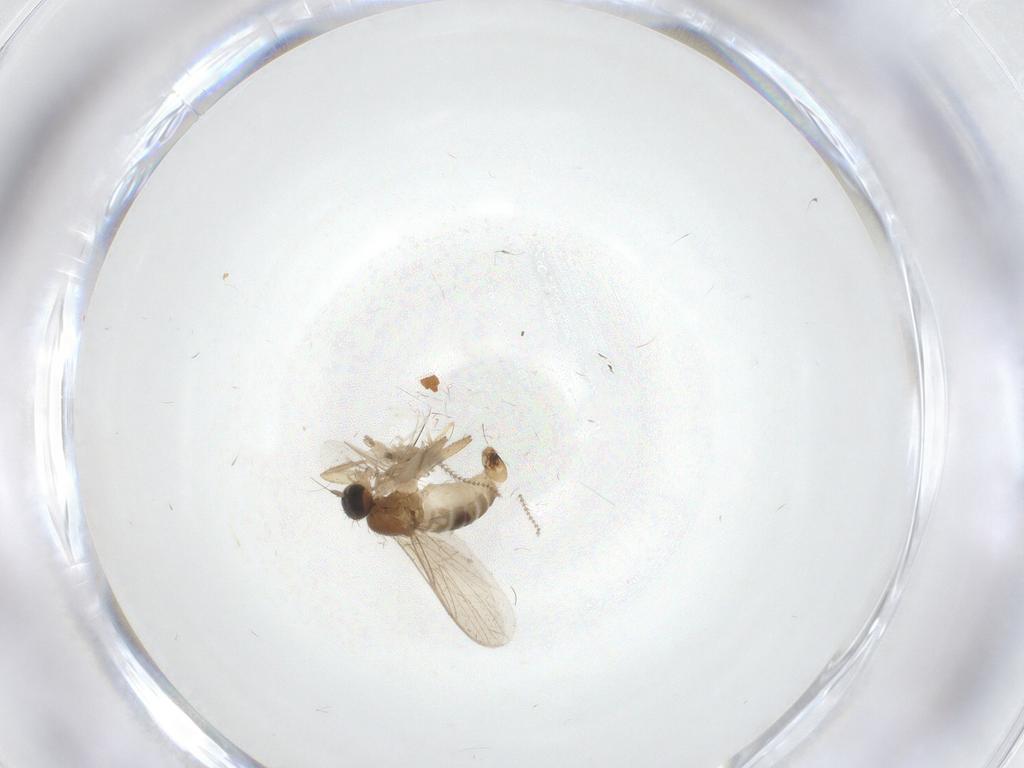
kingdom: Animalia
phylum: Arthropoda
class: Insecta
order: Diptera
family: Hybotidae
